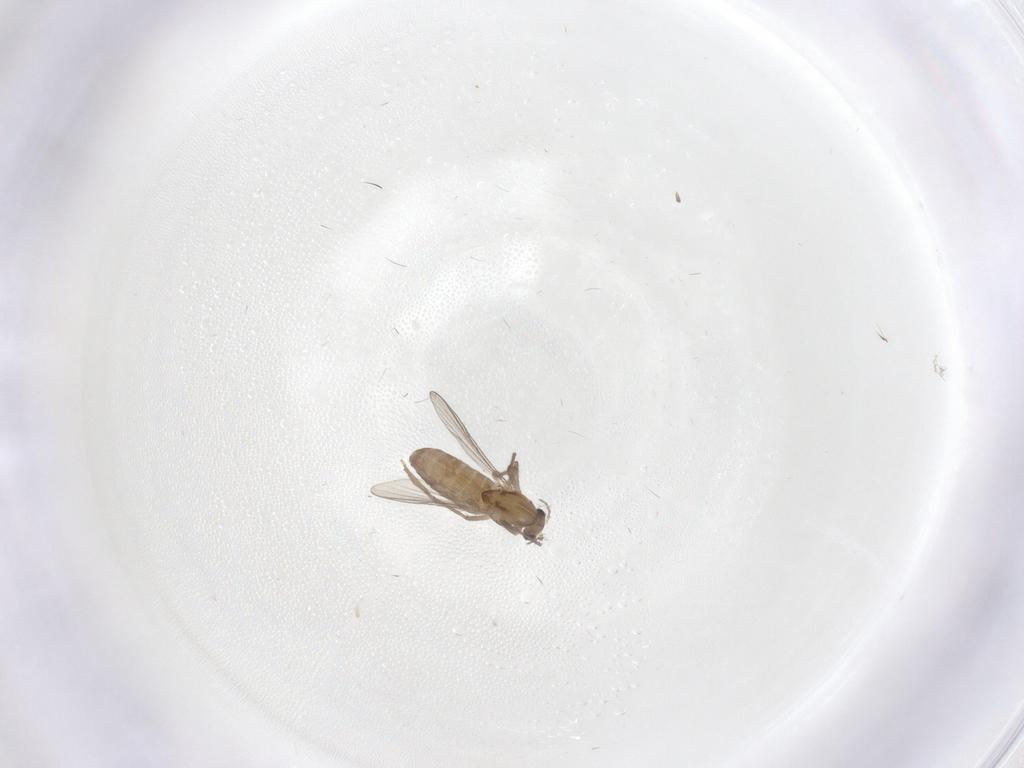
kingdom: Animalia
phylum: Arthropoda
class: Insecta
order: Diptera
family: Chironomidae
